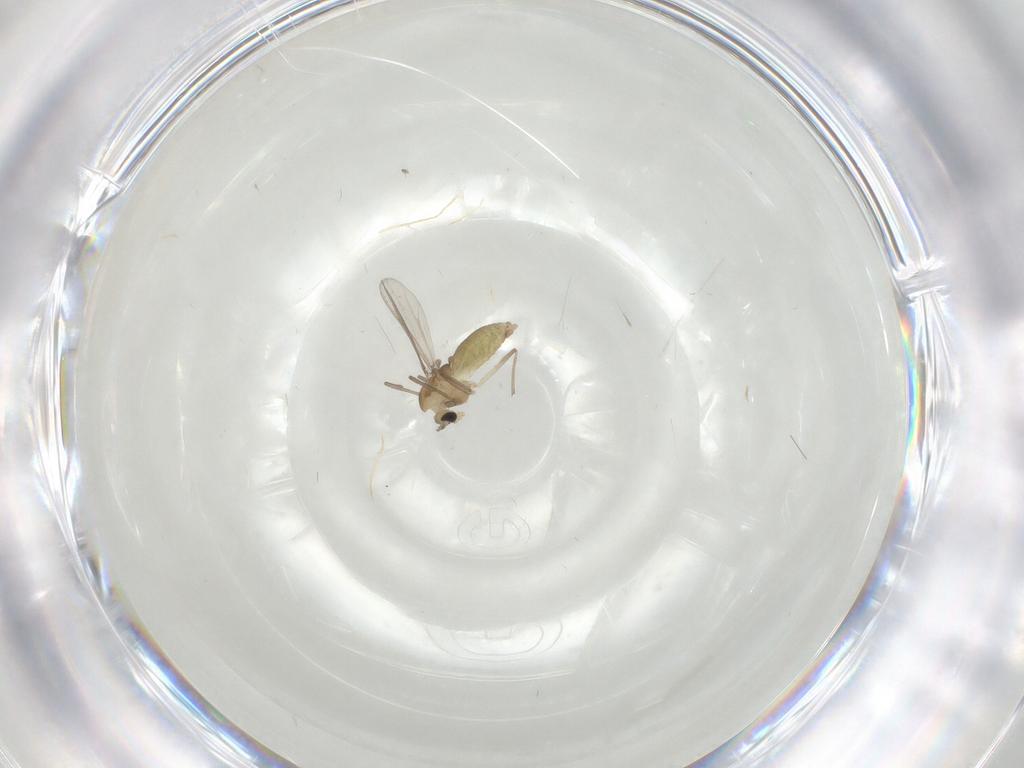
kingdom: Animalia
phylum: Arthropoda
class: Insecta
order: Diptera
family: Chironomidae
